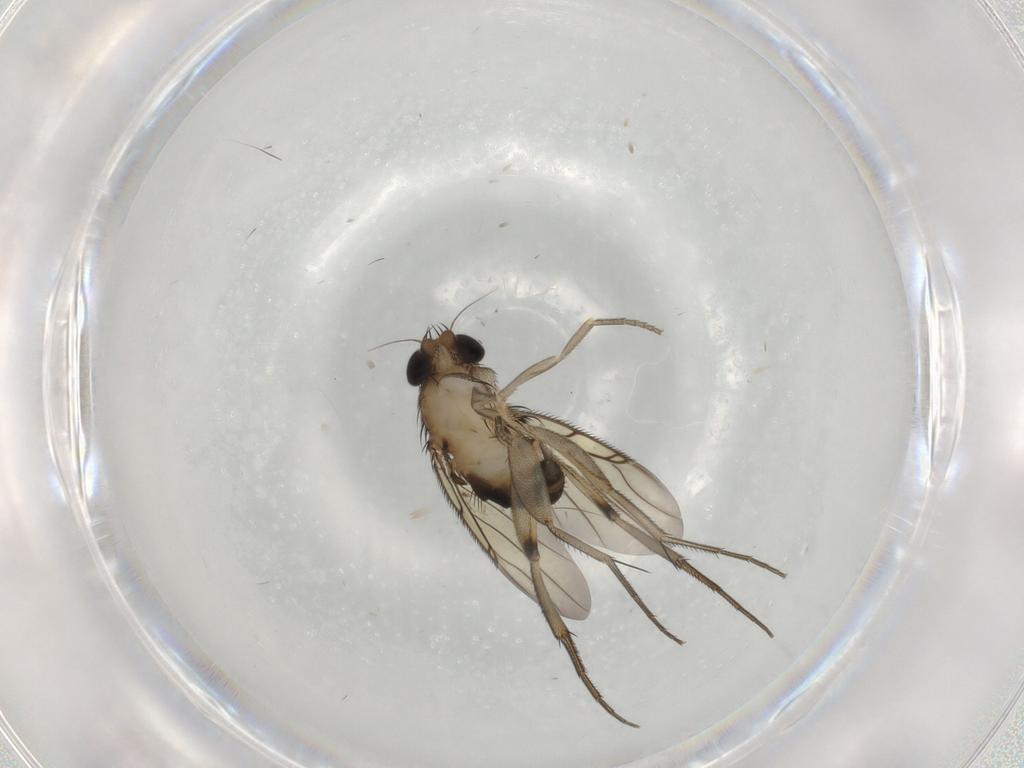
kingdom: Animalia
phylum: Arthropoda
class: Insecta
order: Diptera
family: Phoridae
